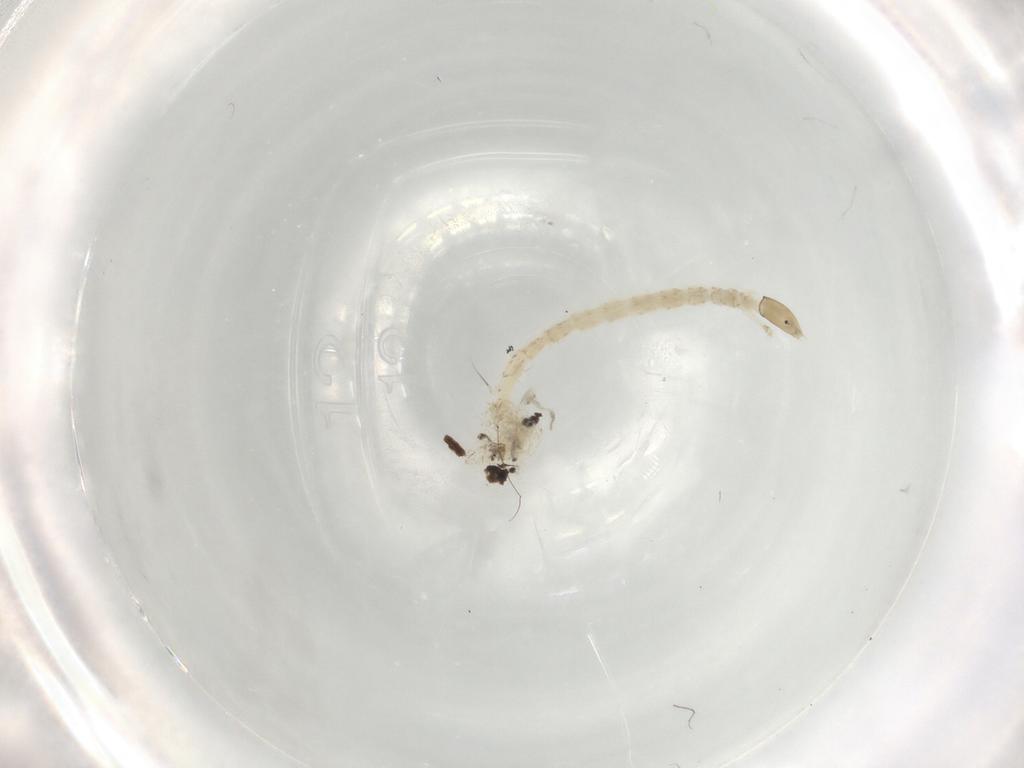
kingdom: Animalia
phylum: Arthropoda
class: Insecta
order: Diptera
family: Chironomidae
